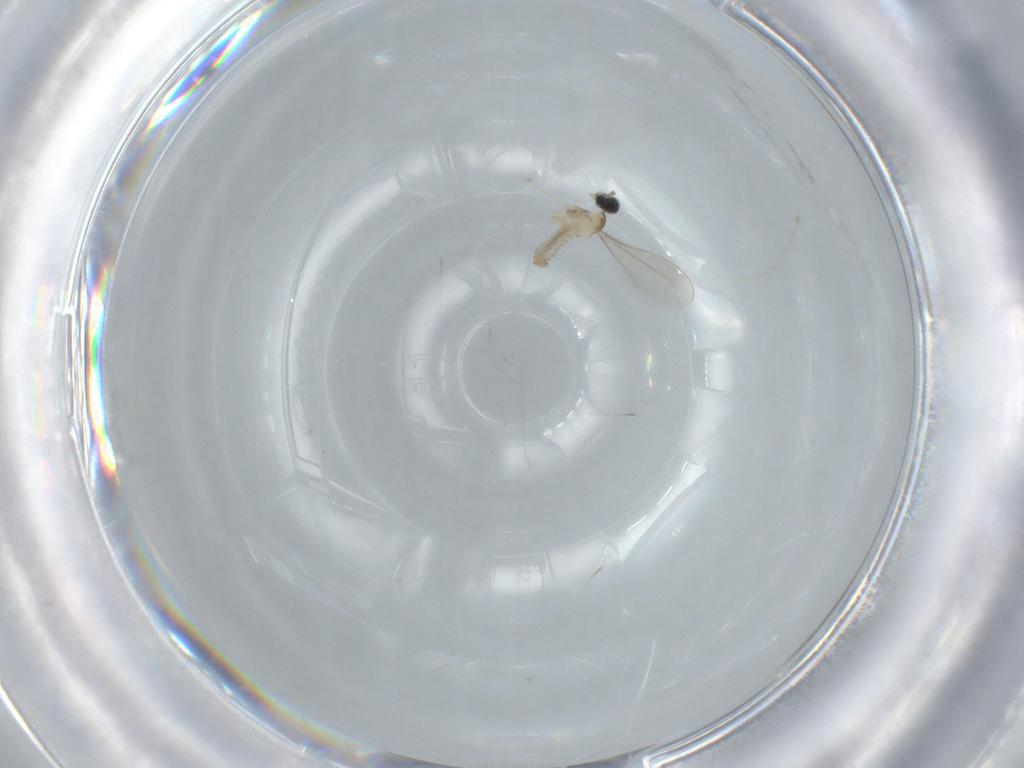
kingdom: Animalia
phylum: Arthropoda
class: Insecta
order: Diptera
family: Cecidomyiidae
